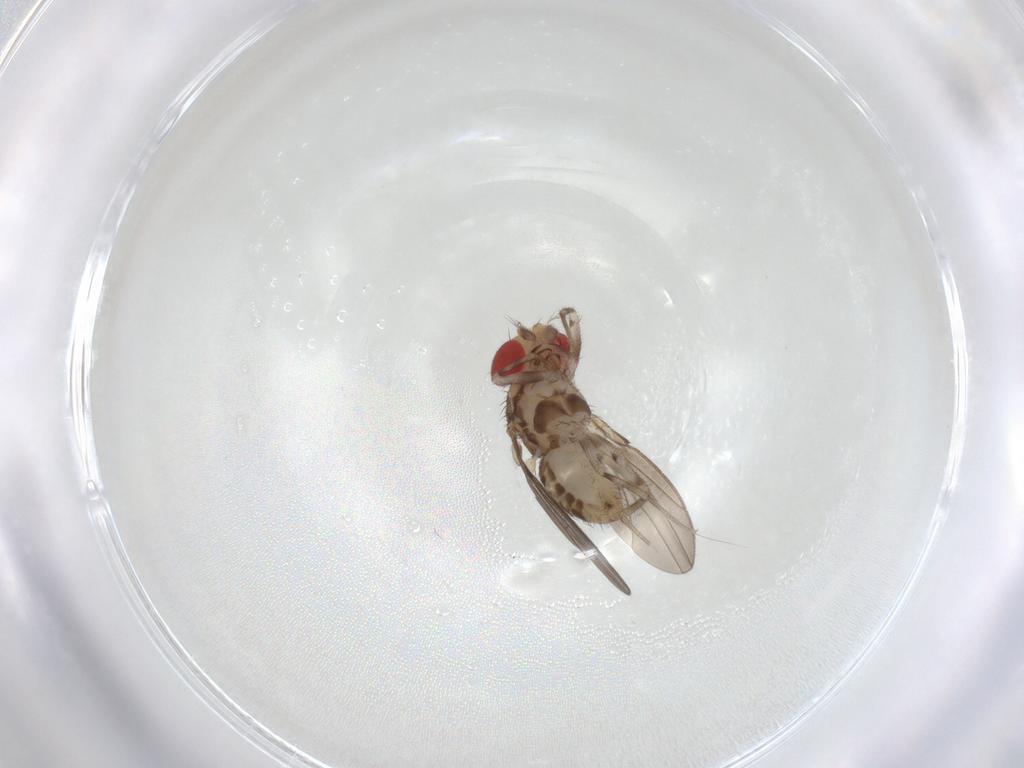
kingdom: Animalia
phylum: Arthropoda
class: Insecta
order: Diptera
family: Drosophilidae
